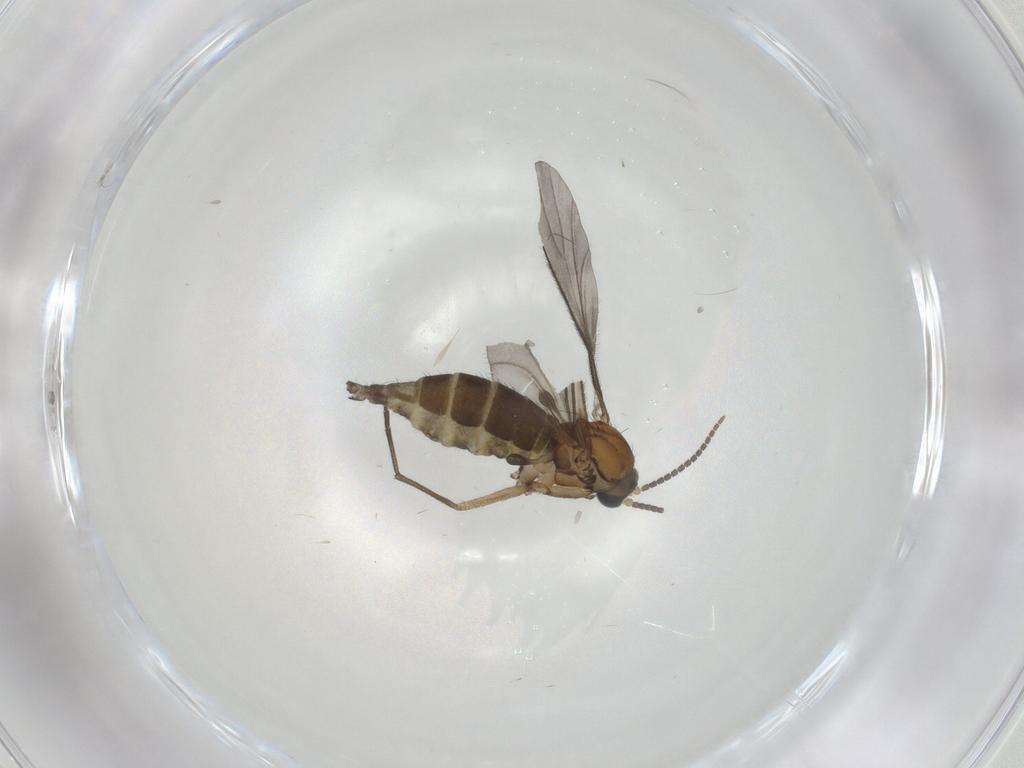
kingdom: Animalia
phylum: Arthropoda
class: Insecta
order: Diptera
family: Sciaridae
